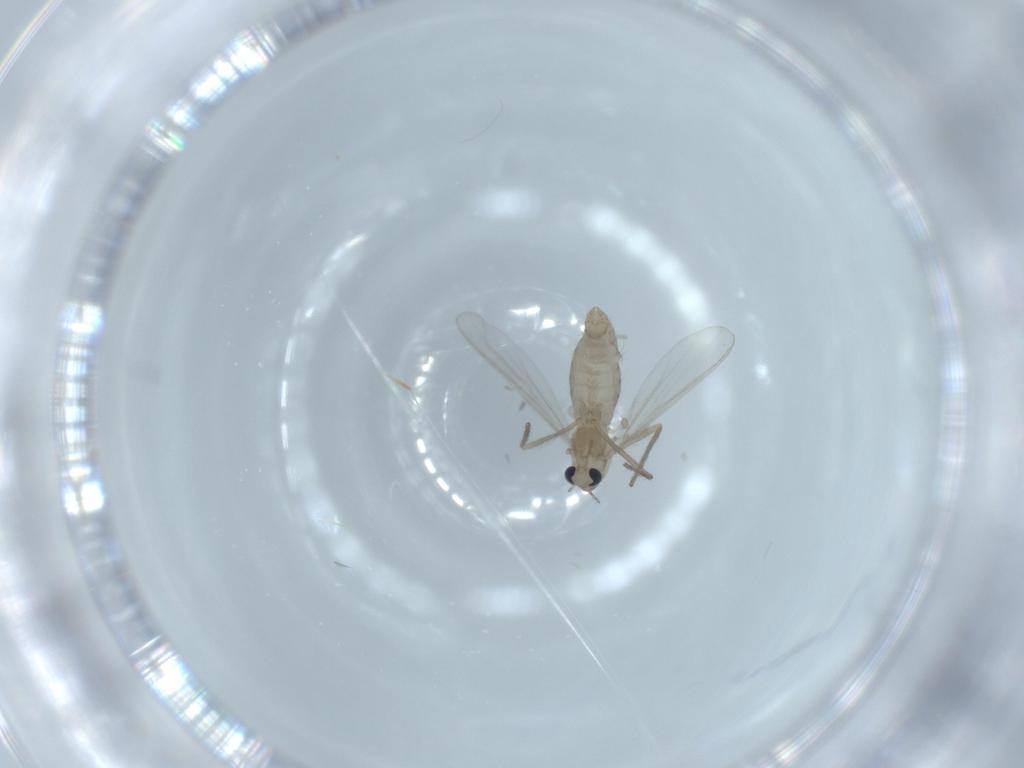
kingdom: Animalia
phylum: Arthropoda
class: Insecta
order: Diptera
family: Chironomidae
